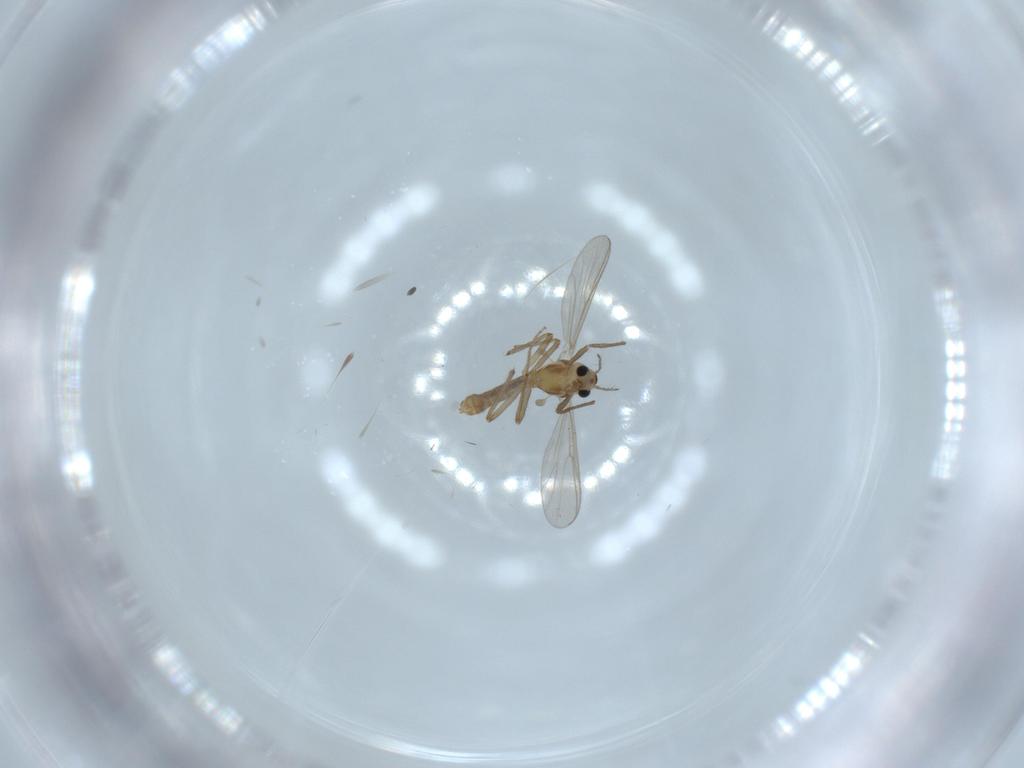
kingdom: Animalia
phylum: Arthropoda
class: Insecta
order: Diptera
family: Chironomidae
